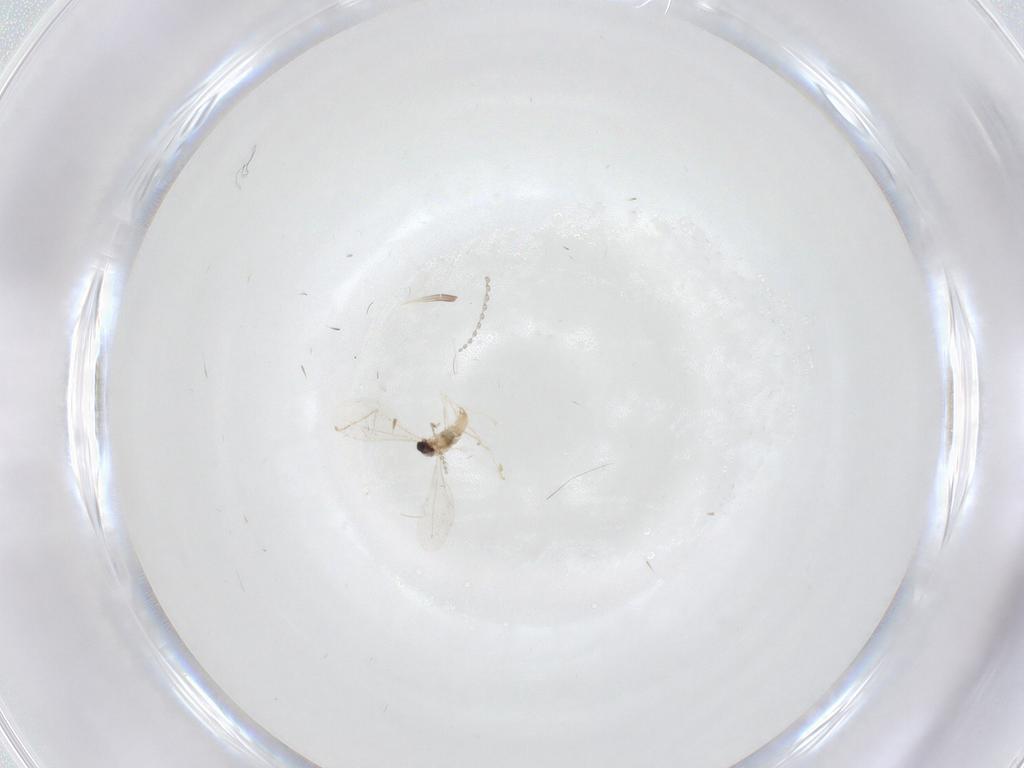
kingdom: Animalia
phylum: Arthropoda
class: Insecta
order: Diptera
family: Cecidomyiidae
